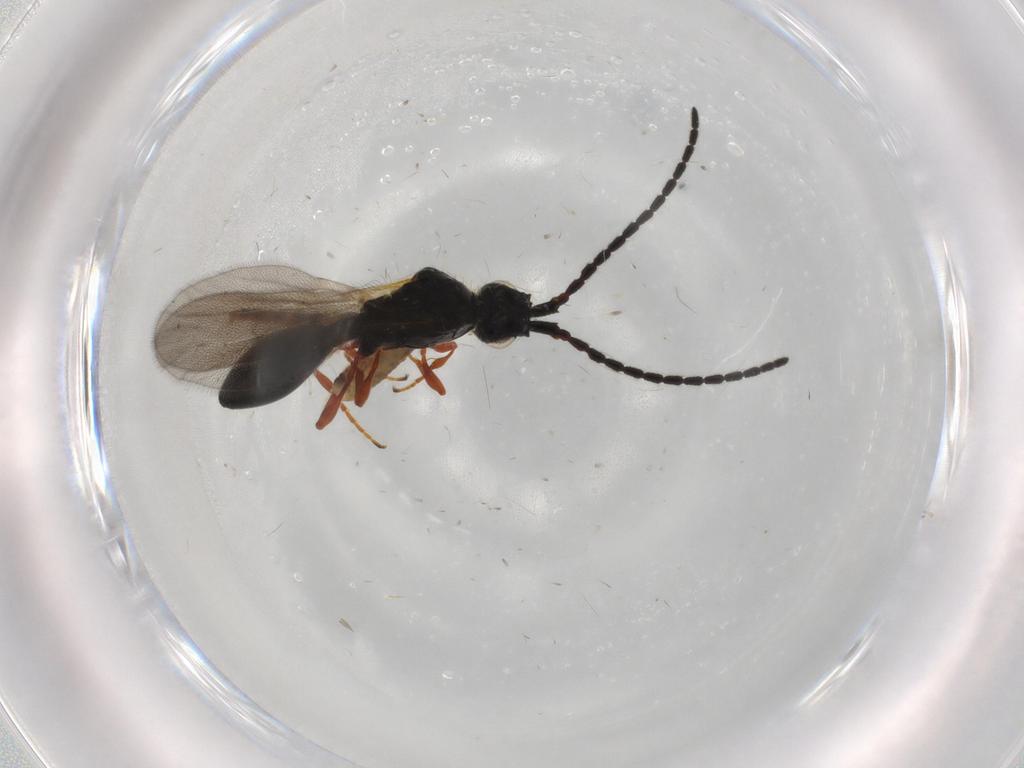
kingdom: Animalia
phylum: Arthropoda
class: Insecta
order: Hymenoptera
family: Diapriidae
